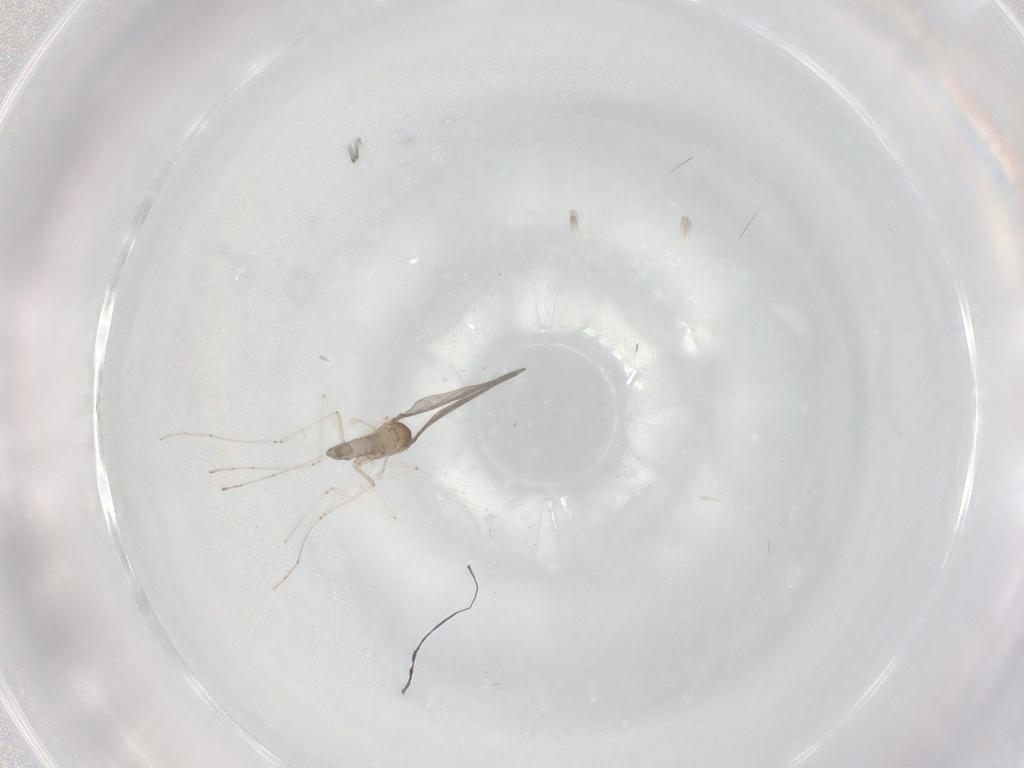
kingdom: Animalia
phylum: Arthropoda
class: Insecta
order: Diptera
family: Cecidomyiidae
